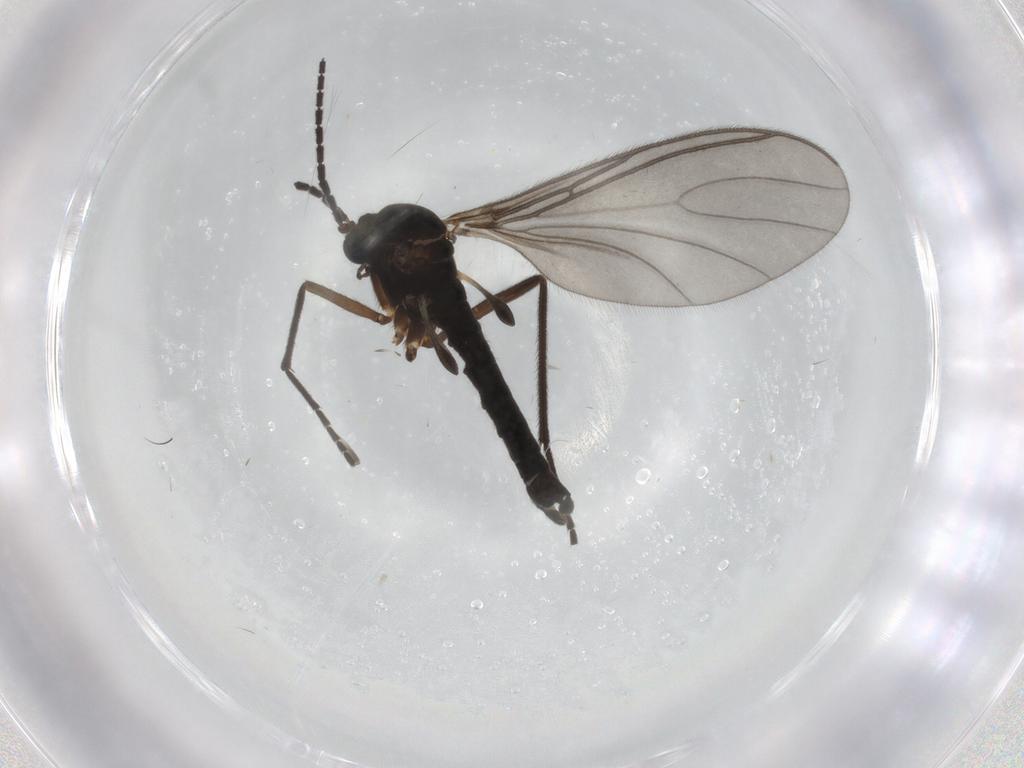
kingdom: Animalia
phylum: Arthropoda
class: Insecta
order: Diptera
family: Sciaridae
